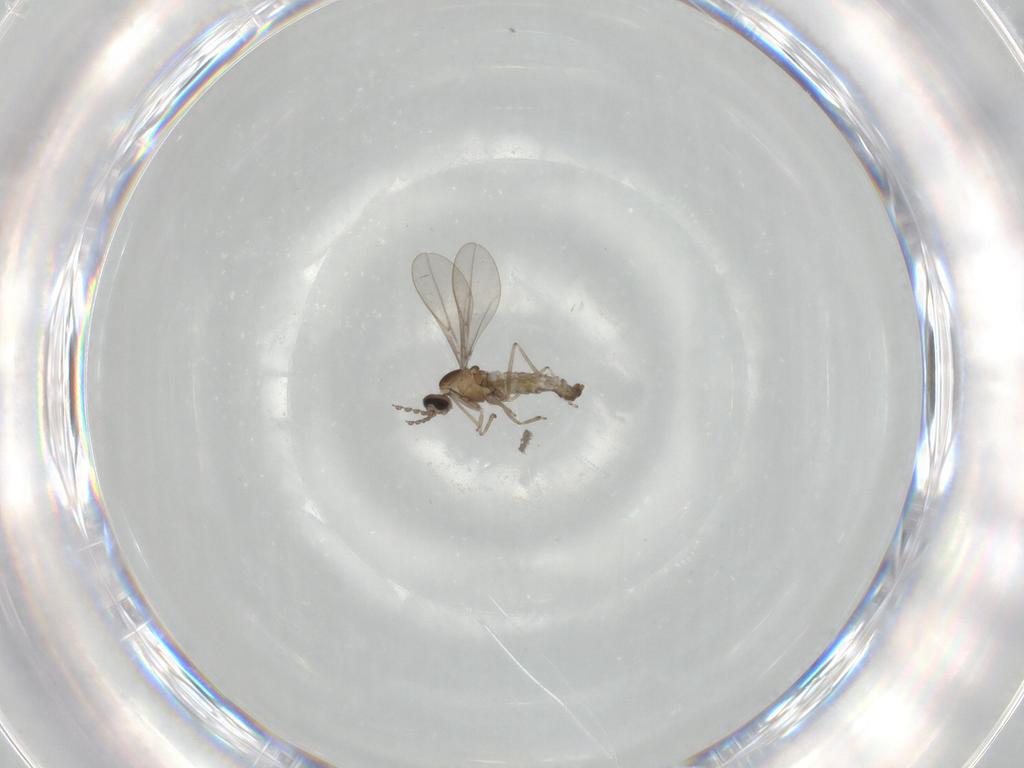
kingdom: Animalia
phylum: Arthropoda
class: Insecta
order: Diptera
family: Cecidomyiidae
